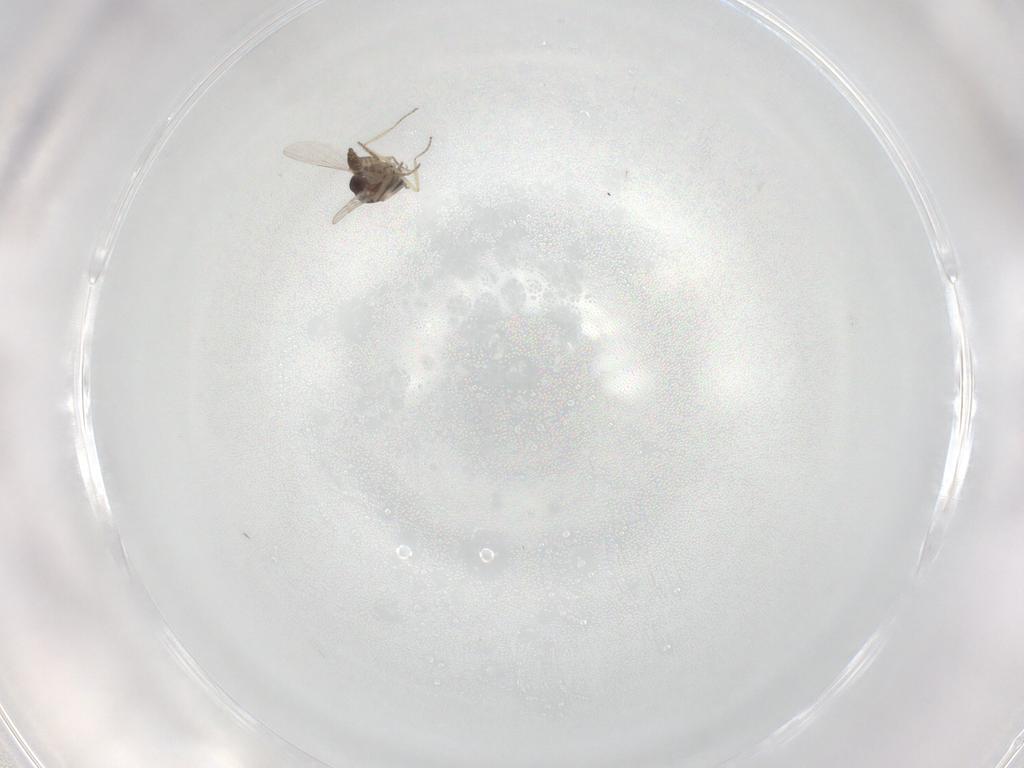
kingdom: Animalia
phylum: Arthropoda
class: Insecta
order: Diptera
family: Ceratopogonidae
